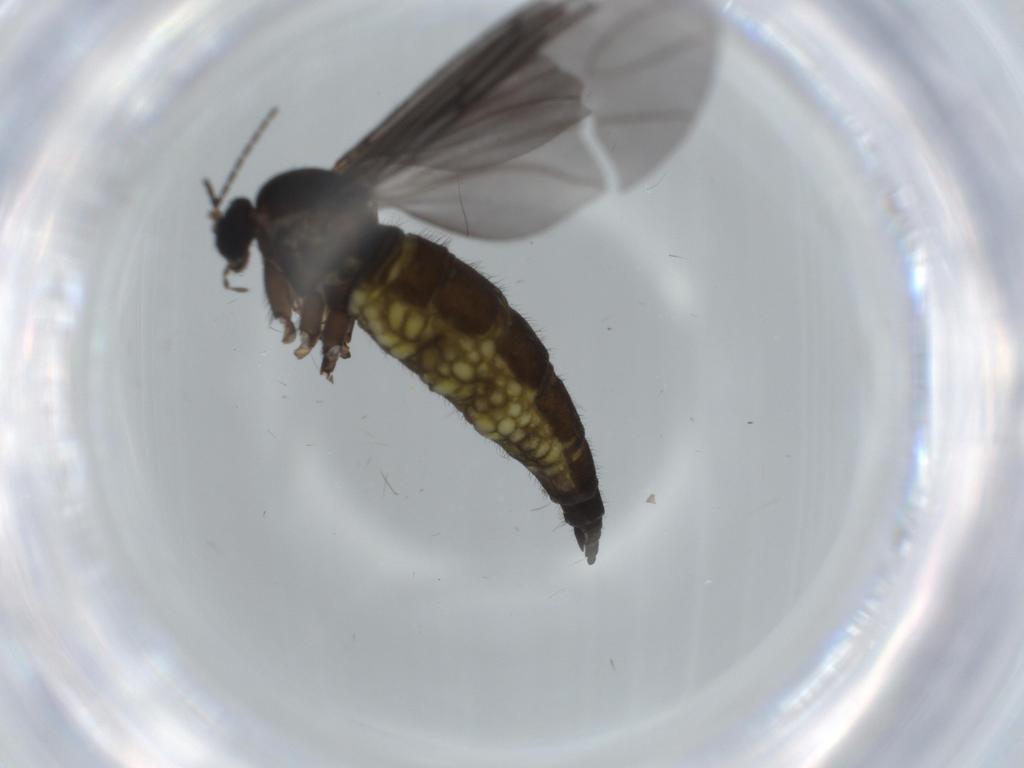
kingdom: Animalia
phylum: Arthropoda
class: Insecta
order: Diptera
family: Sciaridae
